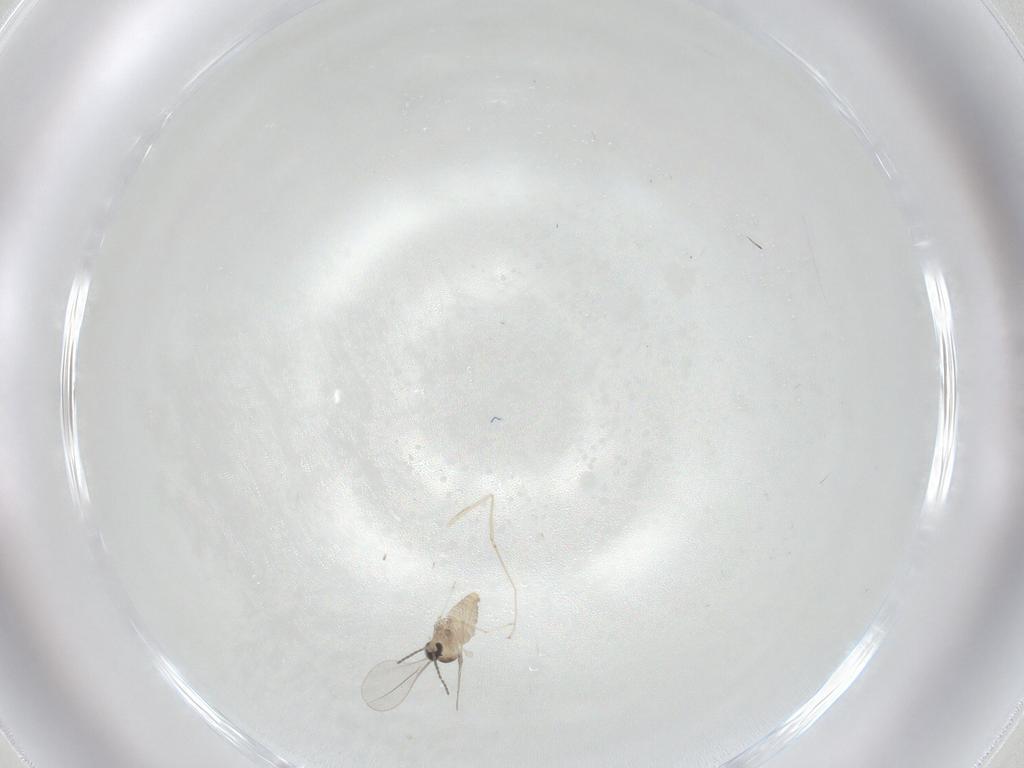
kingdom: Animalia
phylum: Arthropoda
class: Insecta
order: Diptera
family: Cecidomyiidae
